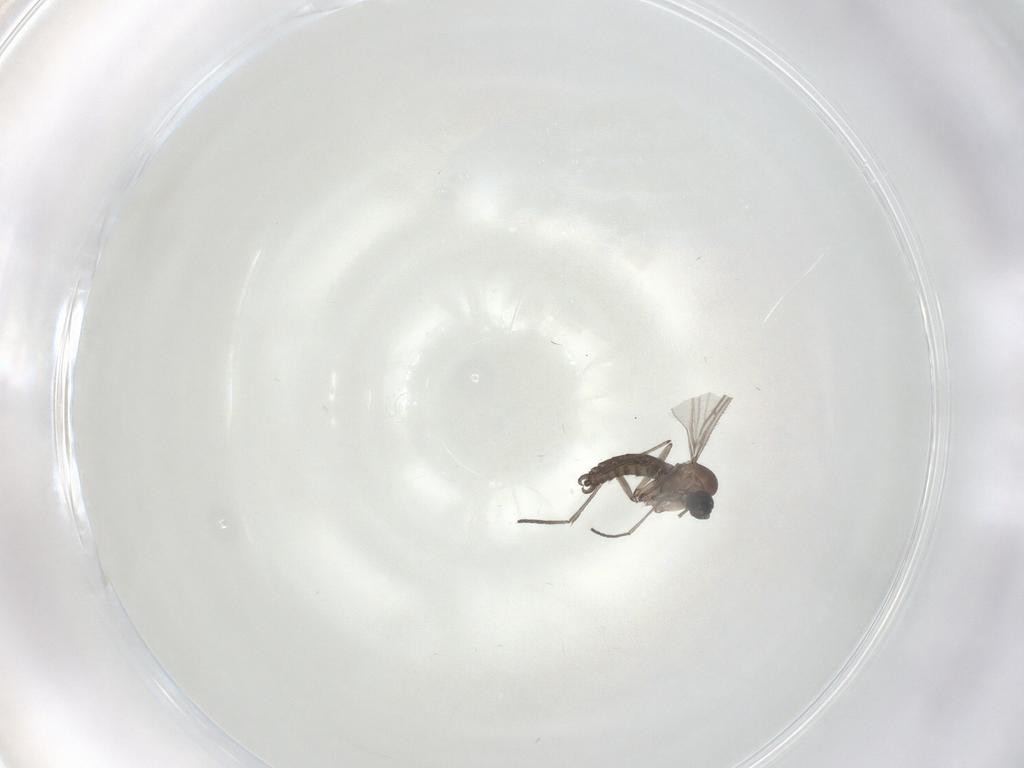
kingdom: Animalia
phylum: Arthropoda
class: Insecta
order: Diptera
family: Sciaridae
